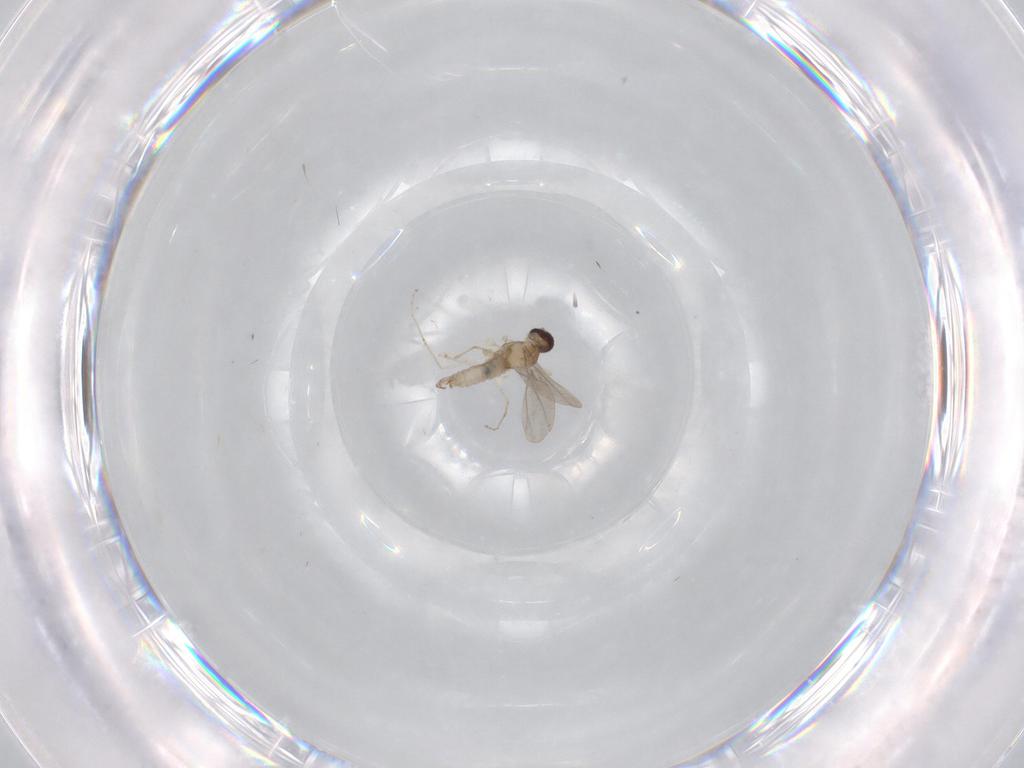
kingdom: Animalia
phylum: Arthropoda
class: Insecta
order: Diptera
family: Cecidomyiidae
